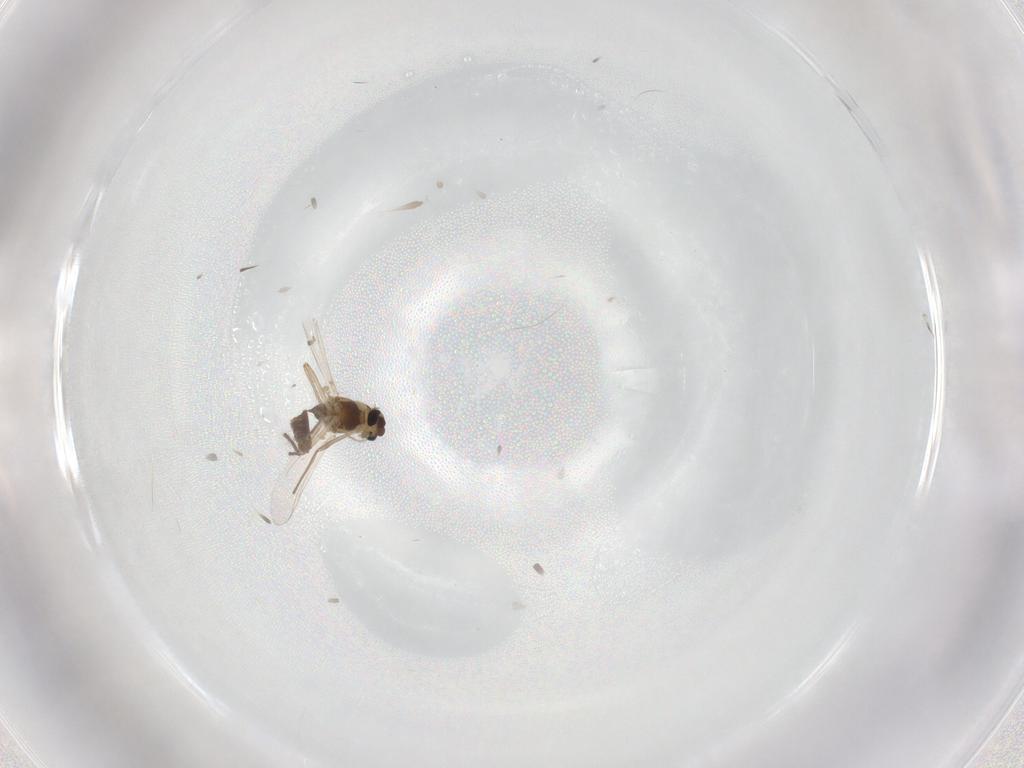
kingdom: Animalia
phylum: Arthropoda
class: Insecta
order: Diptera
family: Chironomidae
